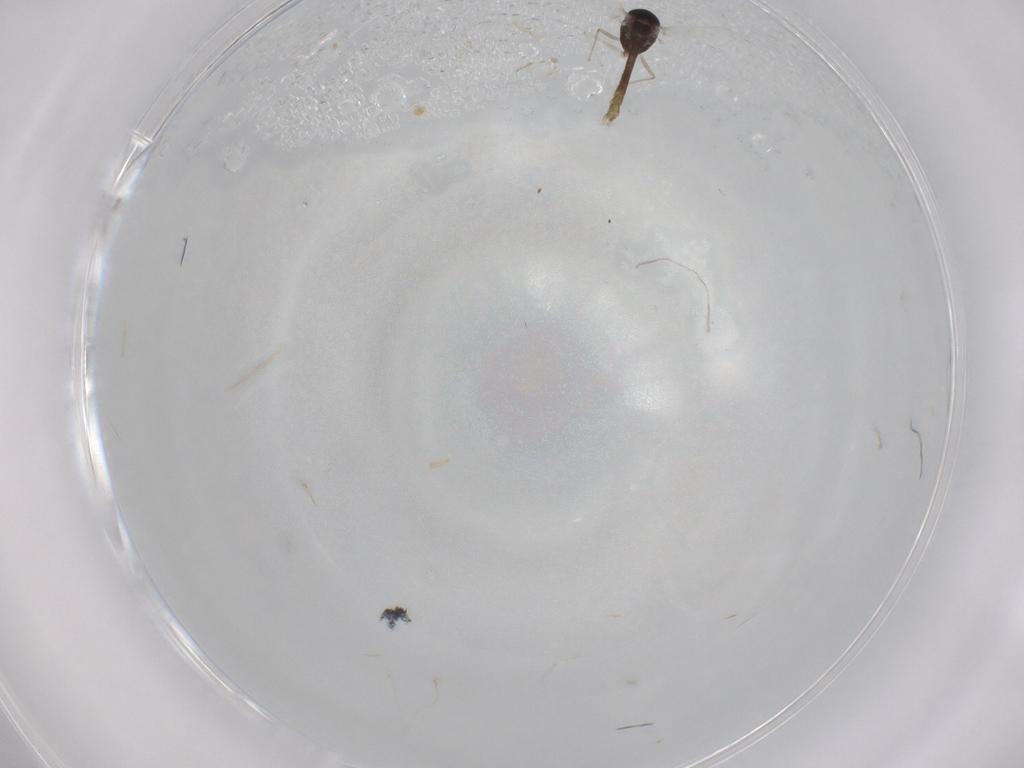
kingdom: Animalia
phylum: Arthropoda
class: Insecta
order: Diptera
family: Chironomidae
